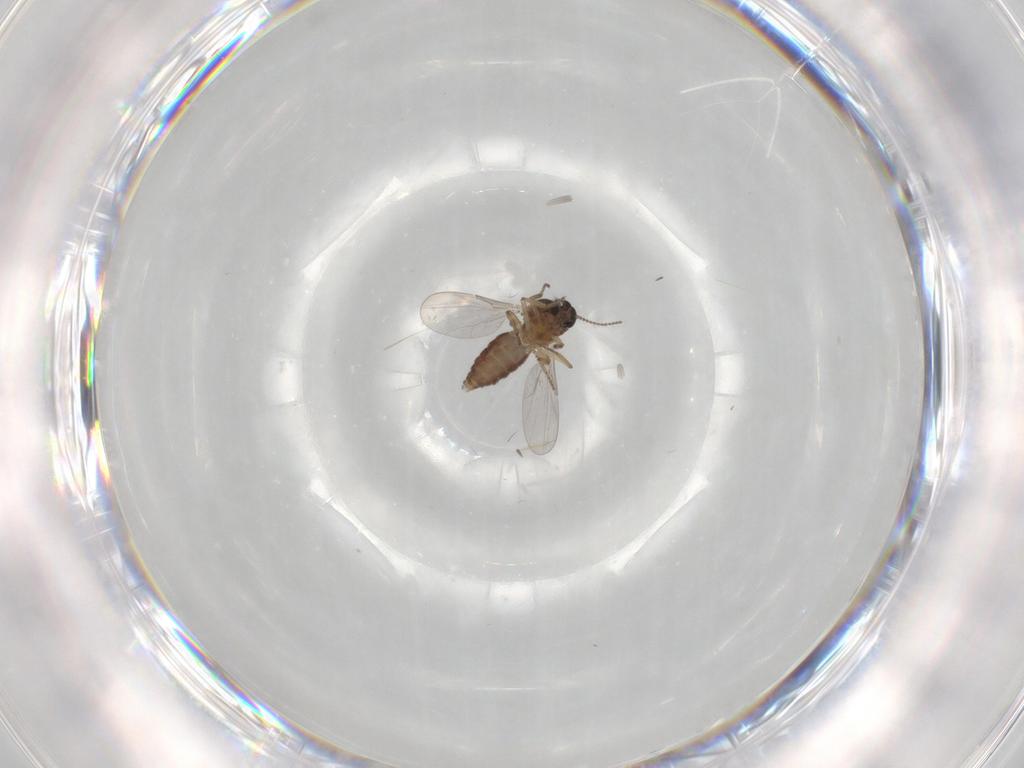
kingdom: Animalia
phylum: Arthropoda
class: Insecta
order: Diptera
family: Ceratopogonidae
